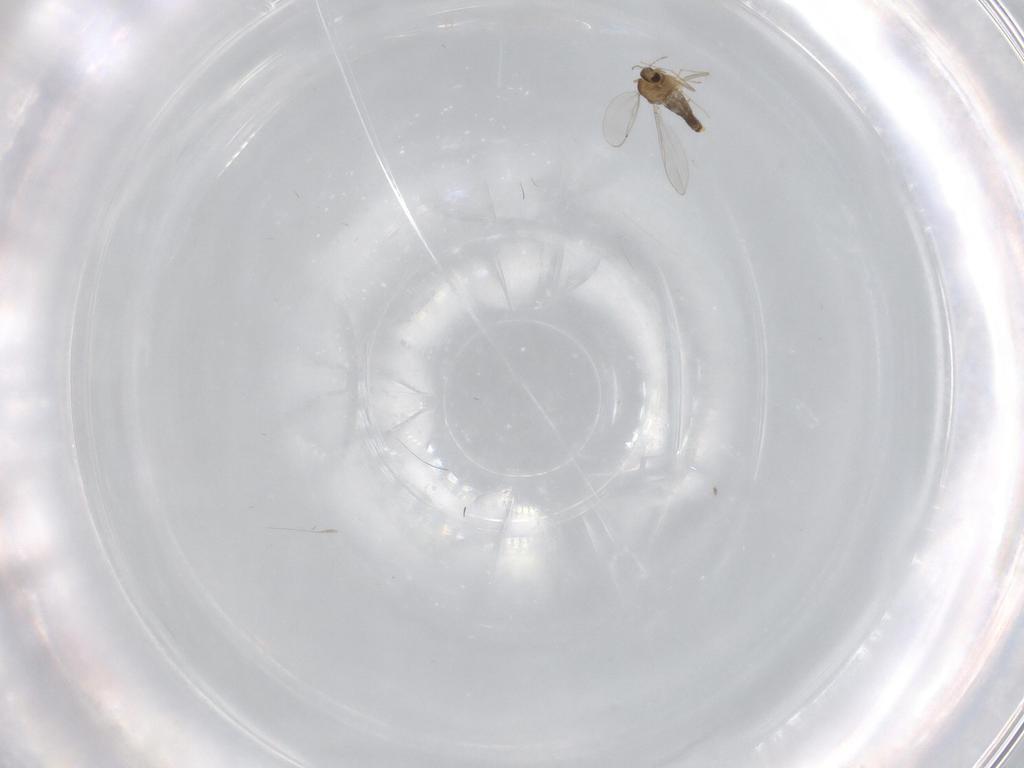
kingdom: Animalia
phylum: Arthropoda
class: Insecta
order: Diptera
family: Chironomidae
